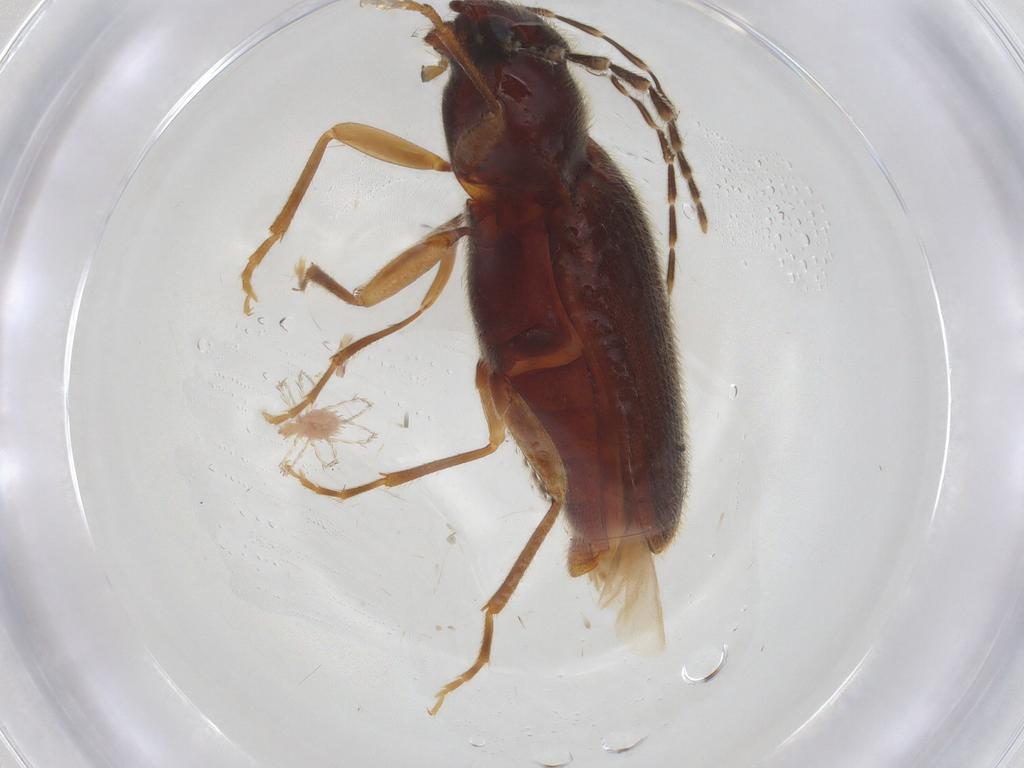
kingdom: Animalia
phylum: Arthropoda
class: Insecta
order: Coleoptera
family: Elateridae
